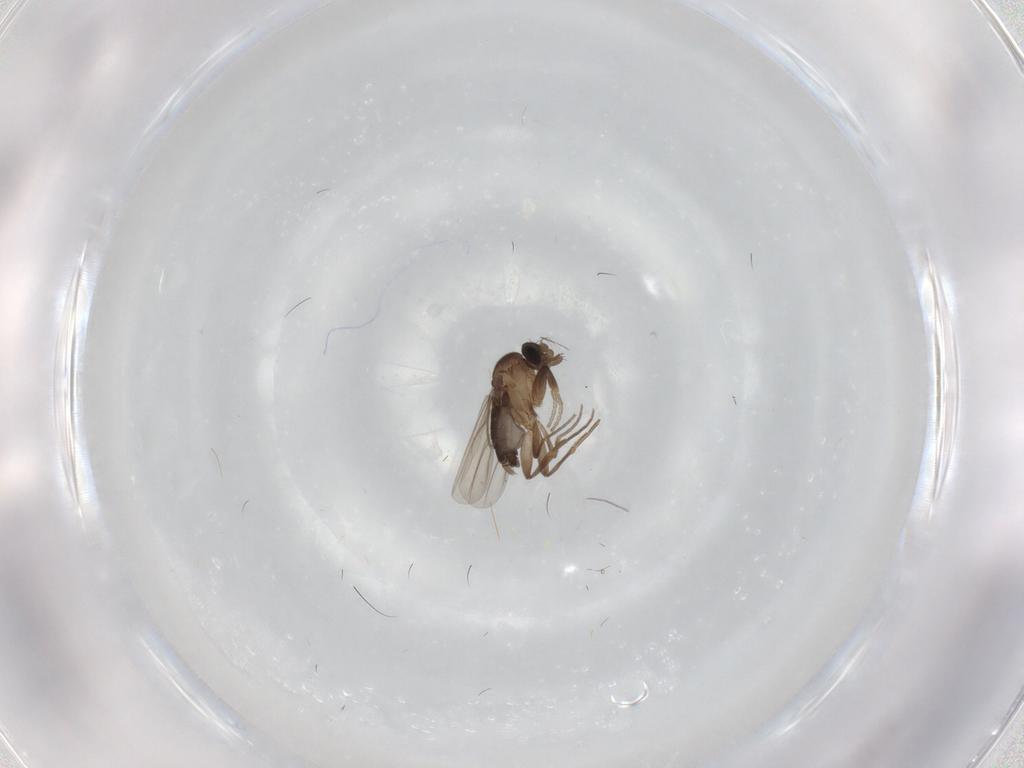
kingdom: Animalia
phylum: Arthropoda
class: Insecta
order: Diptera
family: Phoridae
